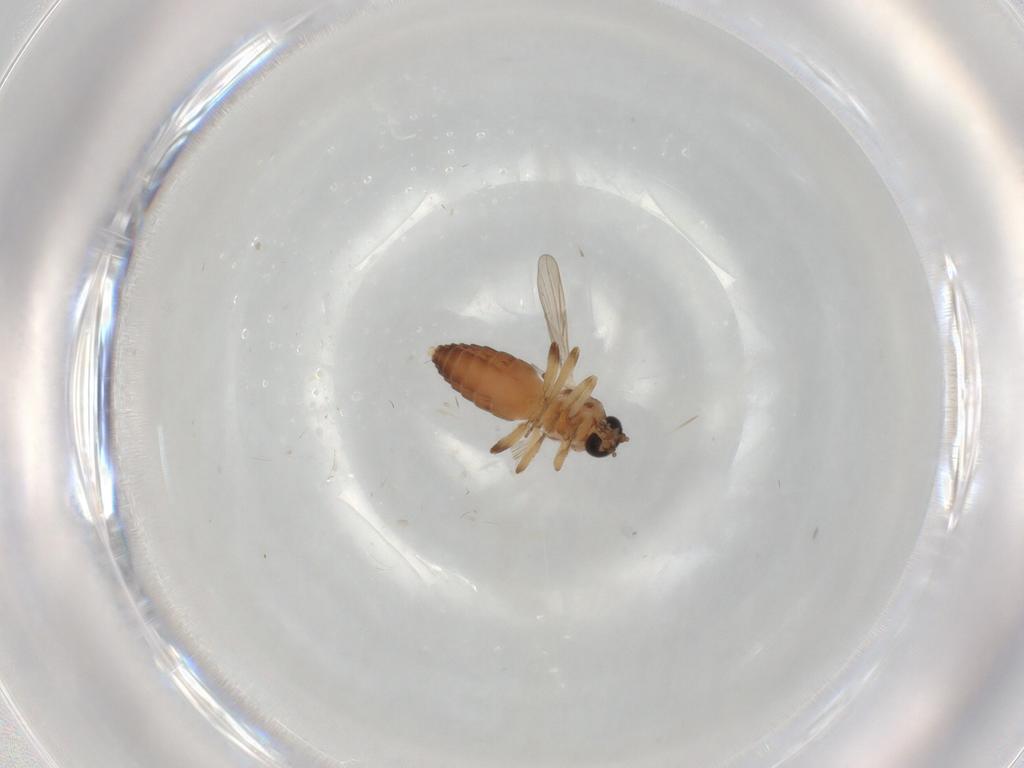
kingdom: Animalia
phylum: Arthropoda
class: Insecta
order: Diptera
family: Ceratopogonidae
